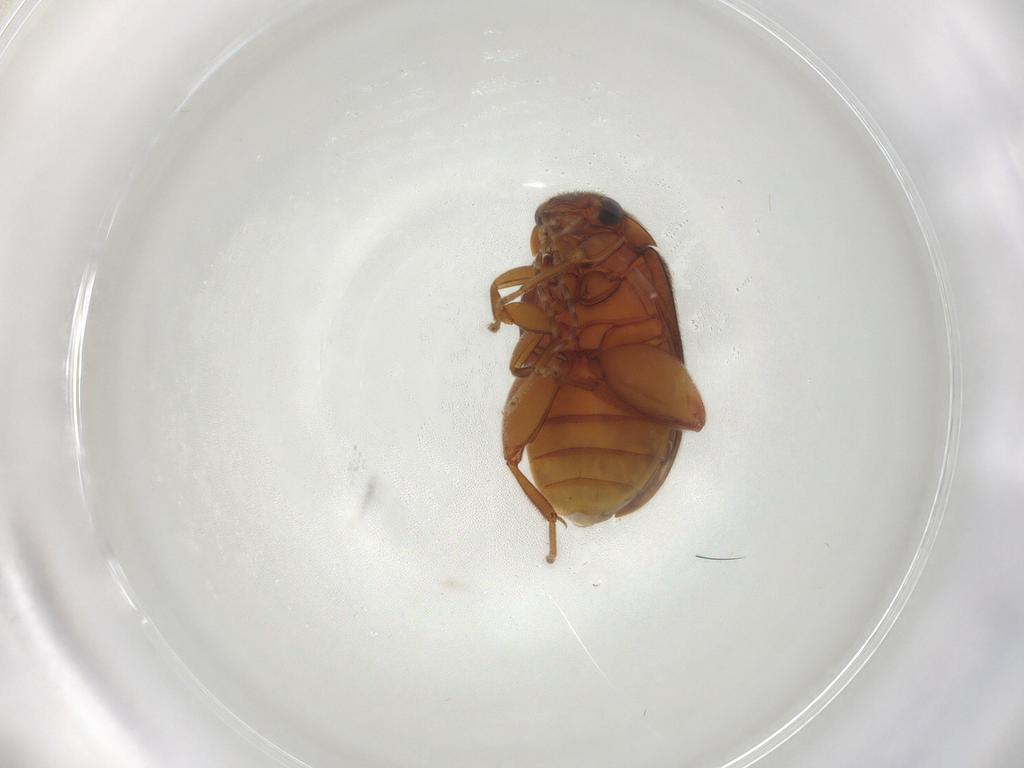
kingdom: Animalia
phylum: Arthropoda
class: Insecta
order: Coleoptera
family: Scirtidae
